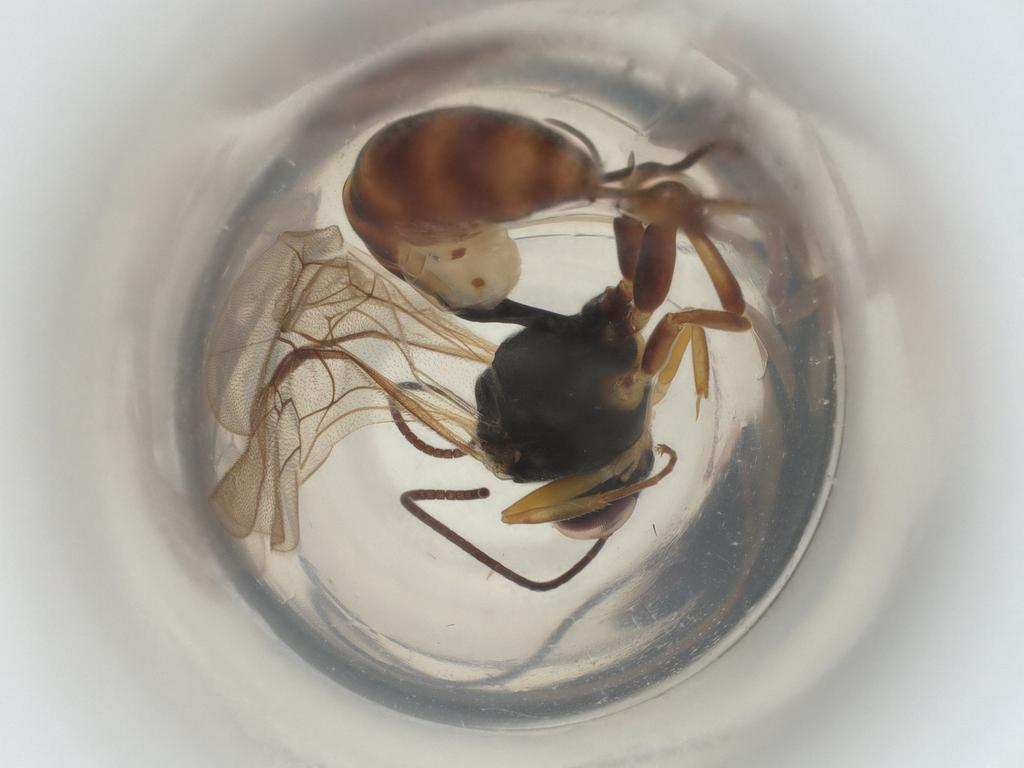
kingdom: Animalia
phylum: Arthropoda
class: Insecta
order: Hymenoptera
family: Ichneumonidae
